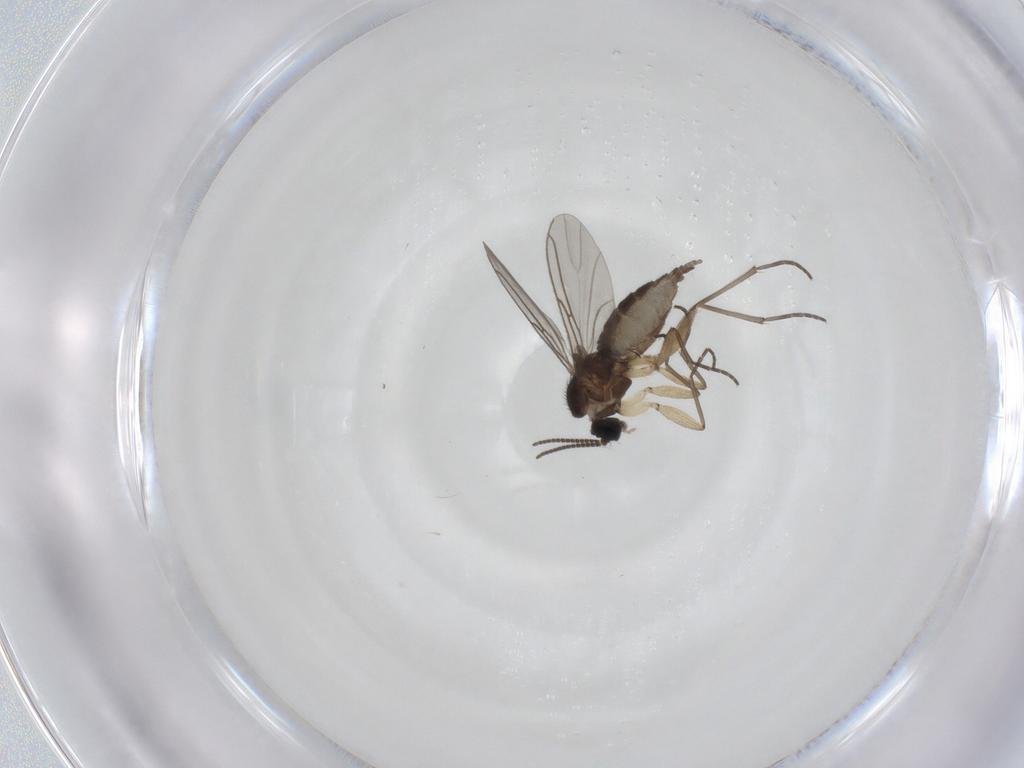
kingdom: Animalia
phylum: Arthropoda
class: Insecta
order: Diptera
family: Sciaridae
